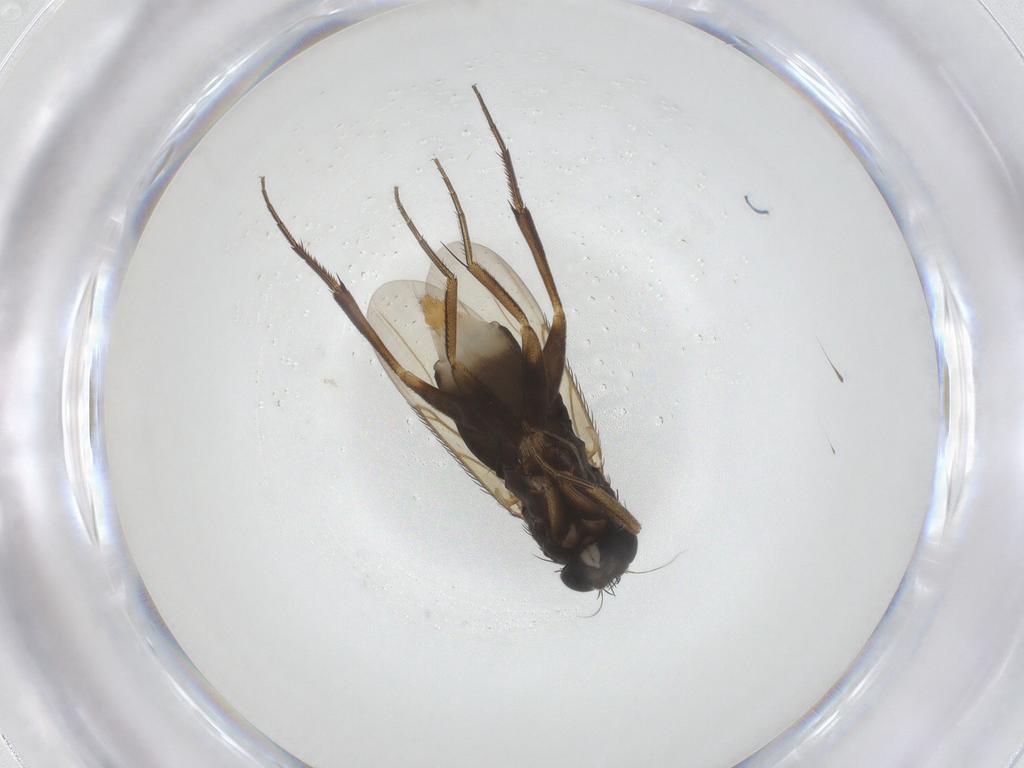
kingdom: Animalia
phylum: Arthropoda
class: Insecta
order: Diptera
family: Phoridae
